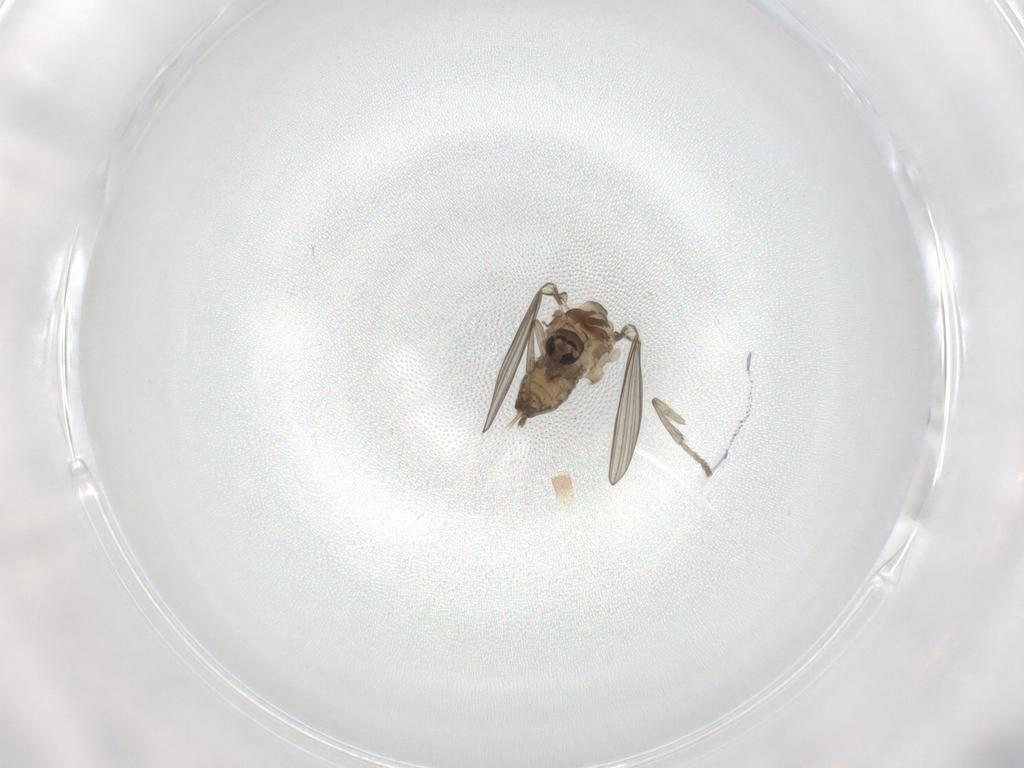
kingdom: Animalia
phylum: Arthropoda
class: Insecta
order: Diptera
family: Psychodidae
